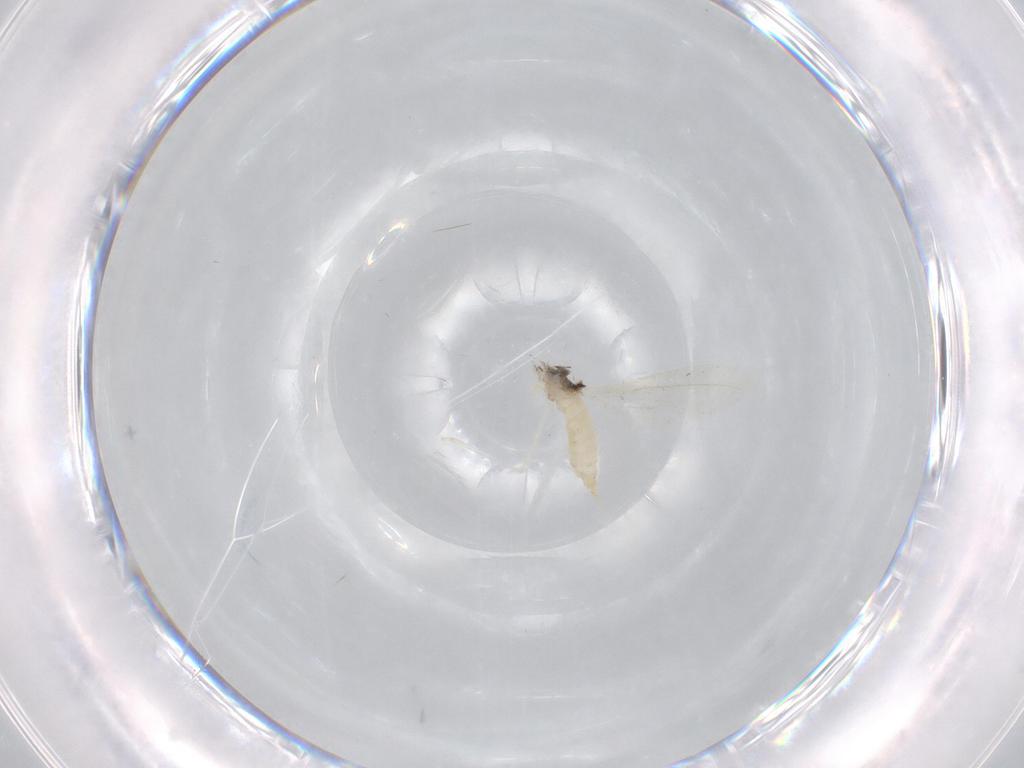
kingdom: Animalia
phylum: Arthropoda
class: Insecta
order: Diptera
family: Cecidomyiidae
